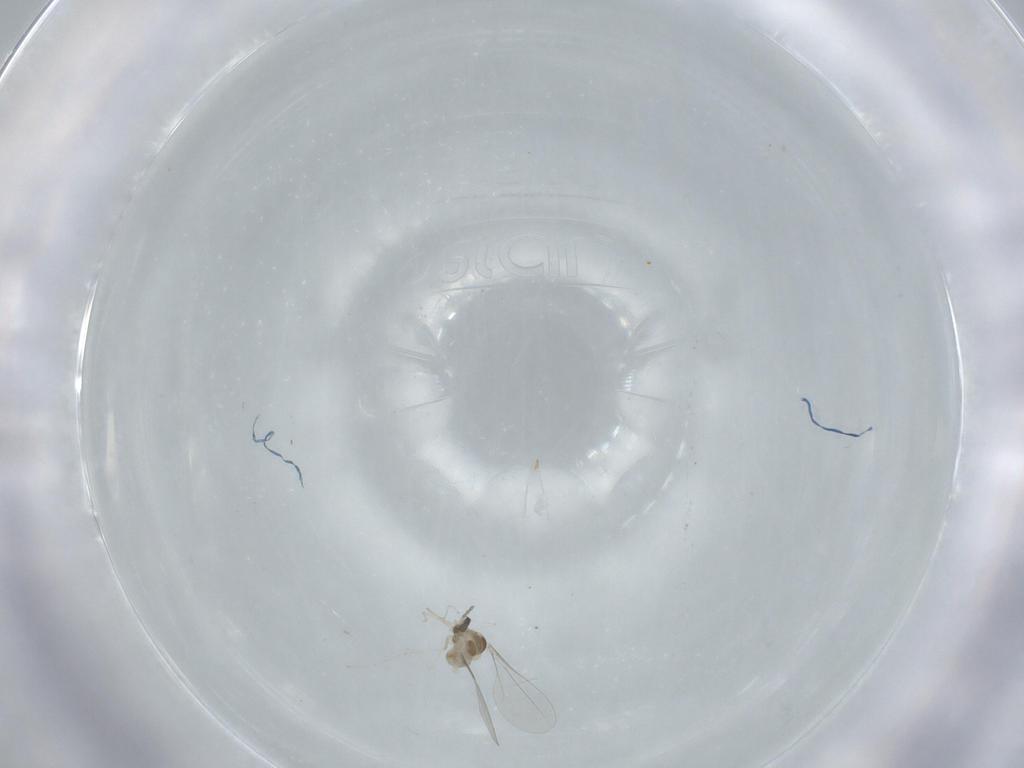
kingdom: Animalia
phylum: Arthropoda
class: Insecta
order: Diptera
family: Cecidomyiidae
